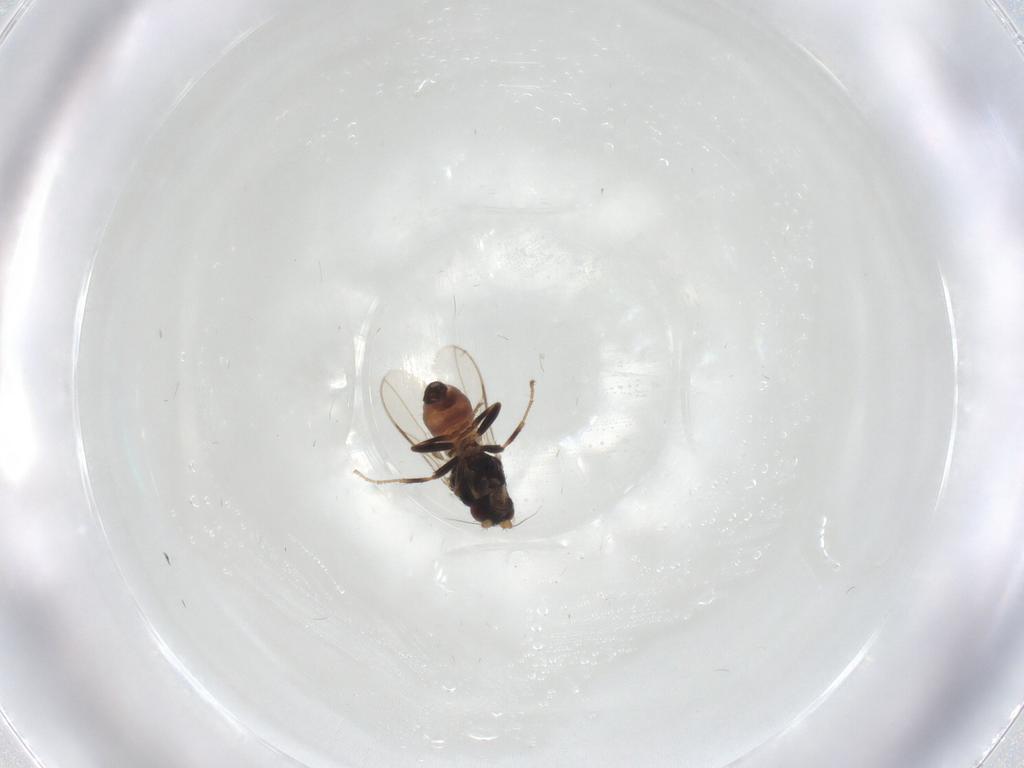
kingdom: Animalia
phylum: Arthropoda
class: Insecta
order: Diptera
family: Sphaeroceridae
